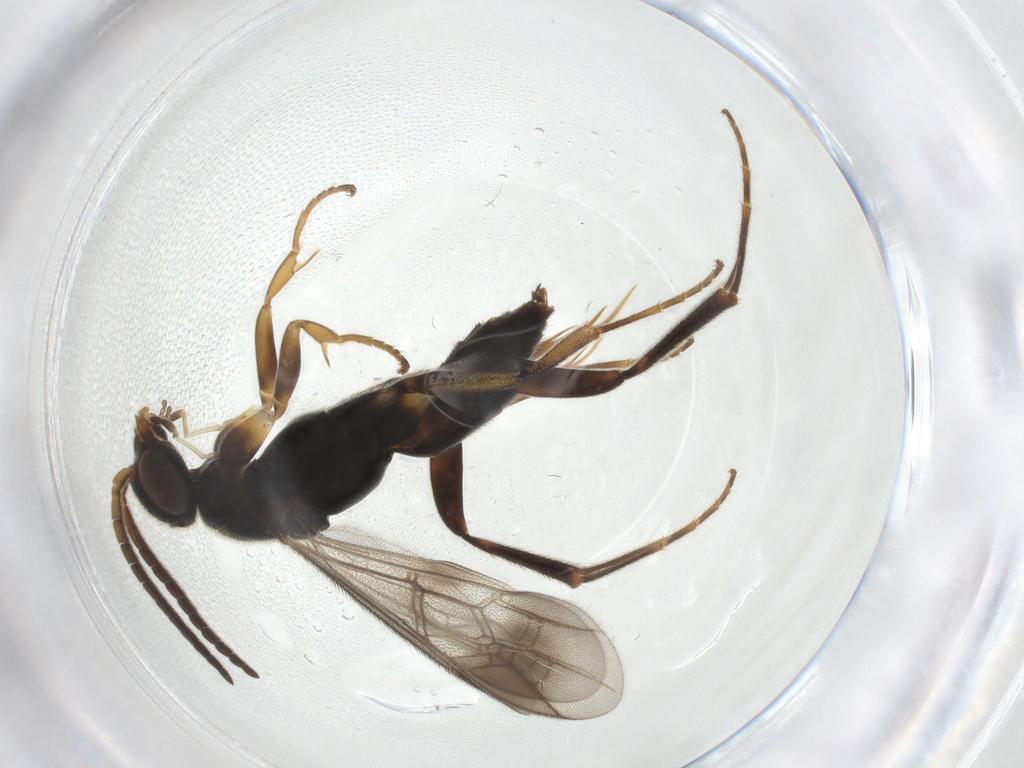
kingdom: Animalia
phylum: Arthropoda
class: Insecta
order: Hymenoptera
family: Pompilidae
